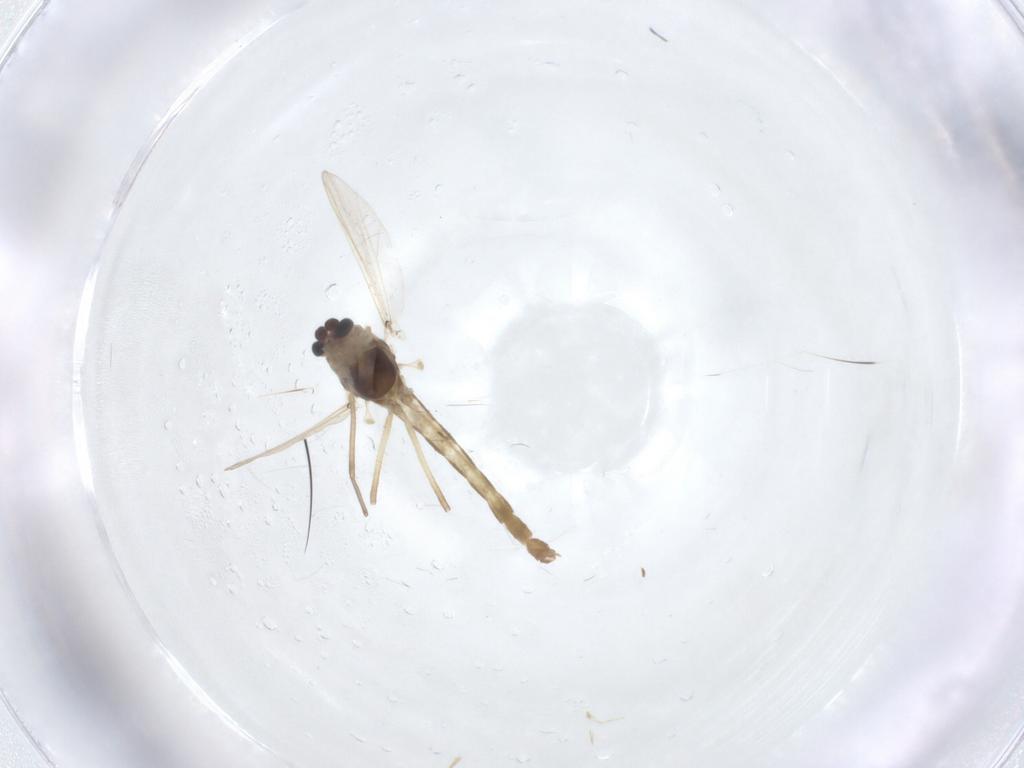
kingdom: Animalia
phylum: Arthropoda
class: Insecta
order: Diptera
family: Chironomidae
